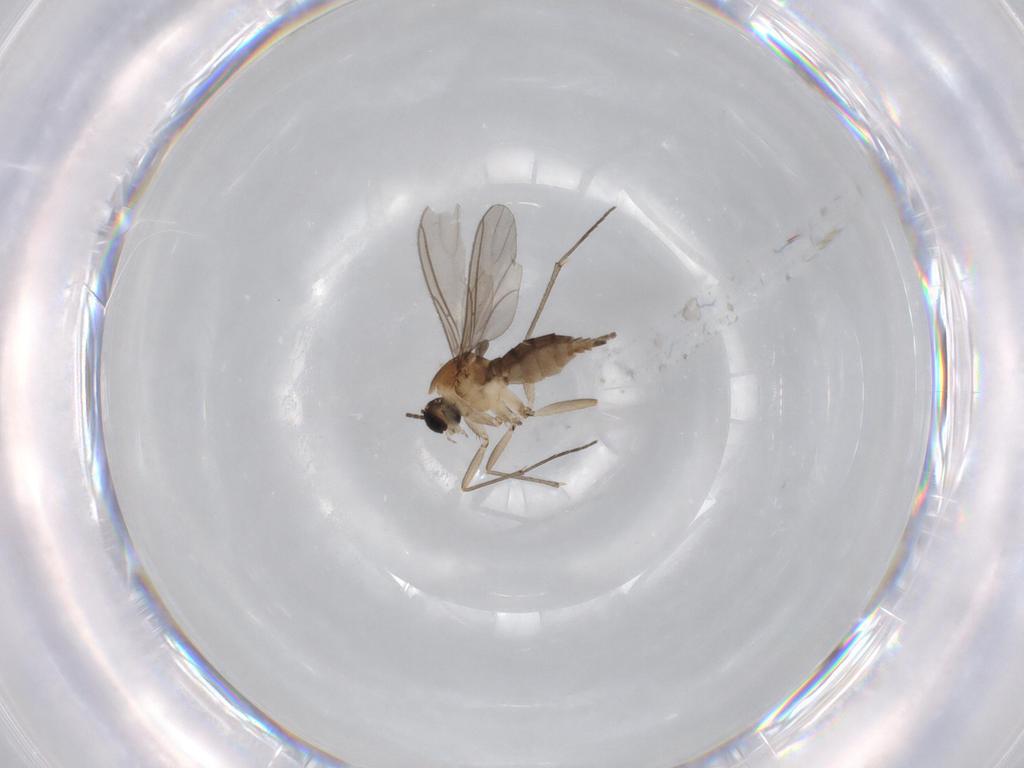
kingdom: Animalia
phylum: Arthropoda
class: Insecta
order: Diptera
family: Sciaridae
